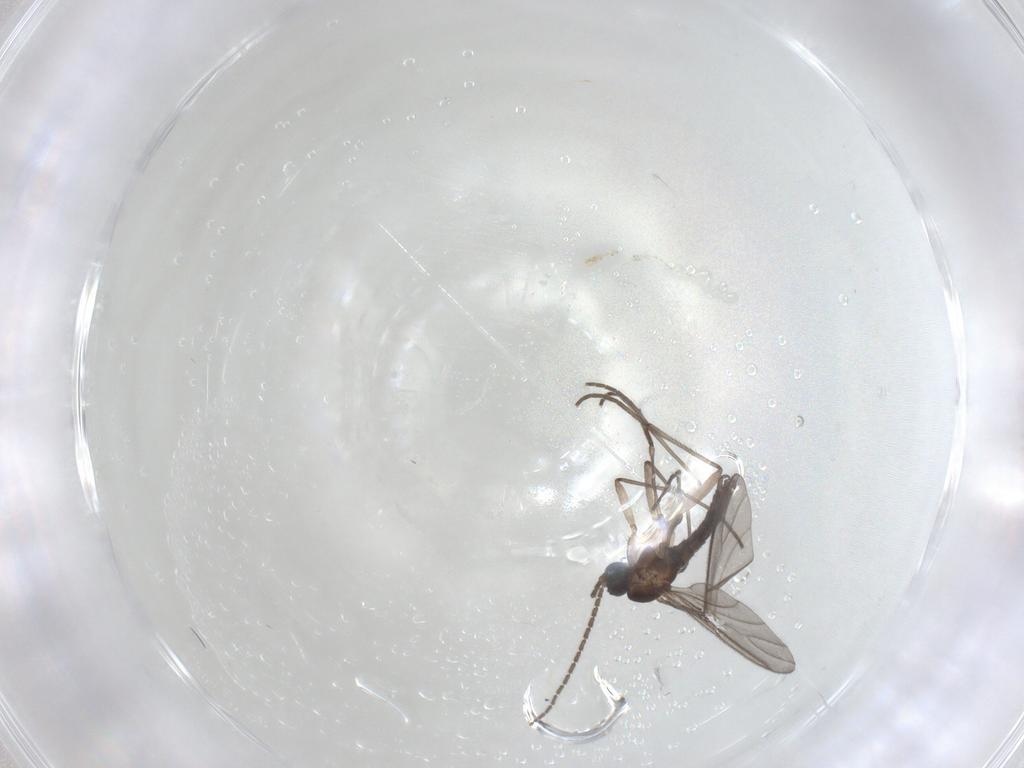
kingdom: Animalia
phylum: Arthropoda
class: Insecta
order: Diptera
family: Sciaridae
